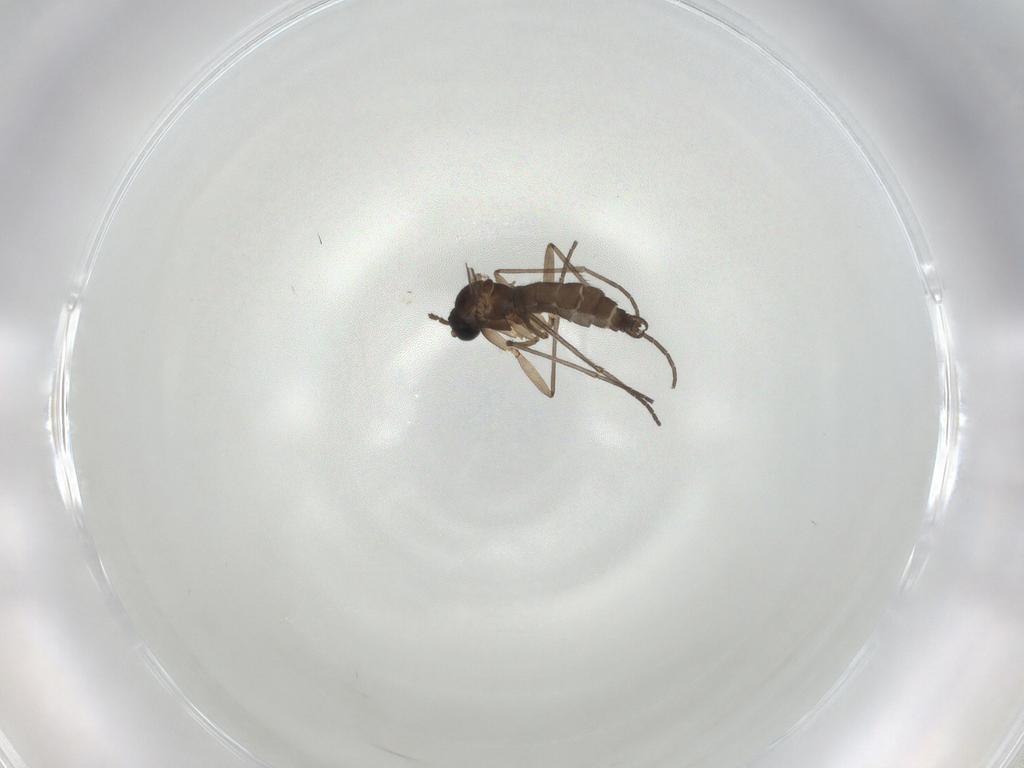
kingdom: Animalia
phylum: Arthropoda
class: Insecta
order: Diptera
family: Sciaridae
